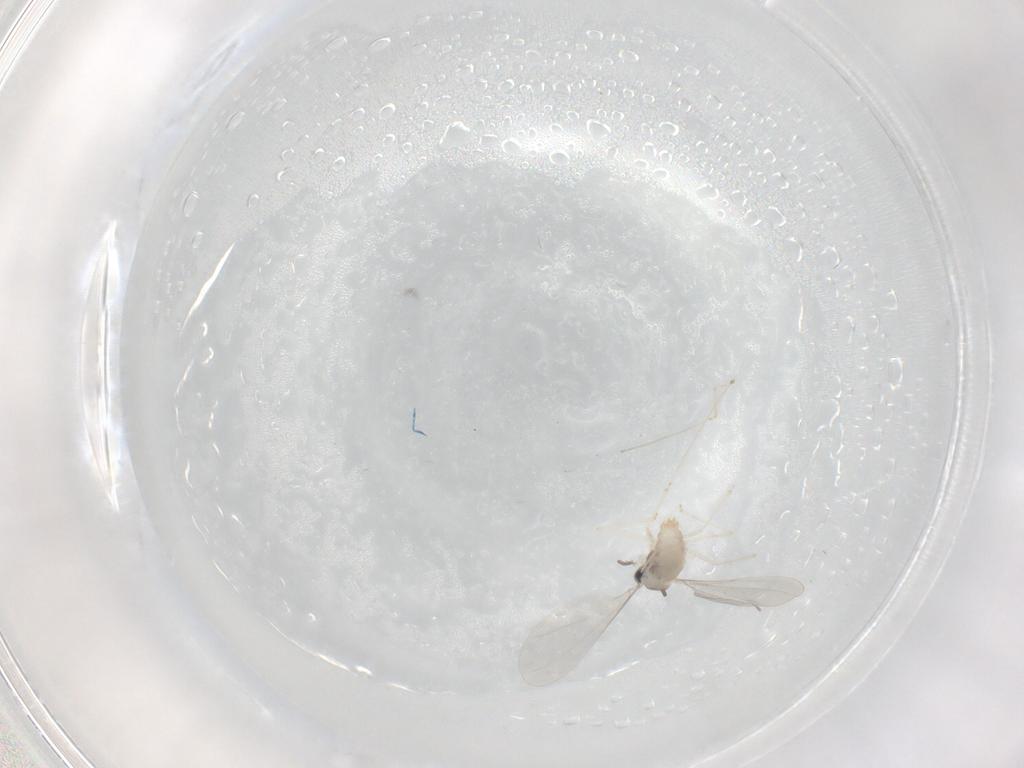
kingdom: Animalia
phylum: Arthropoda
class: Insecta
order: Diptera
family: Cecidomyiidae
